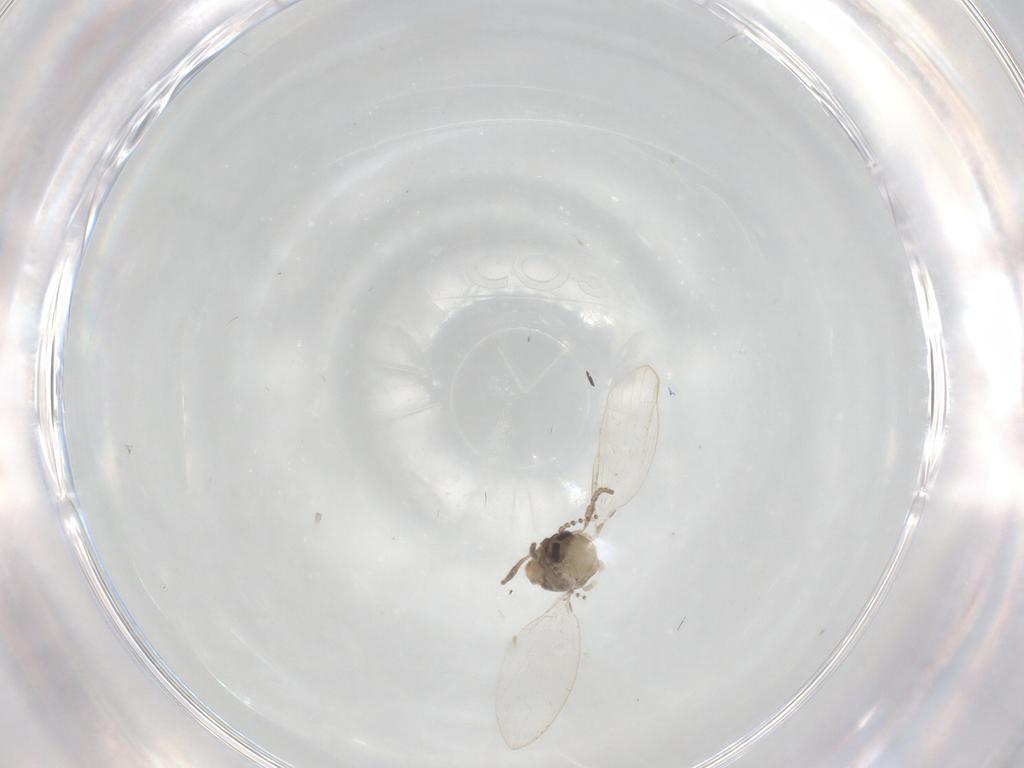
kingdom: Animalia
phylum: Arthropoda
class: Insecta
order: Diptera
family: Psychodidae
